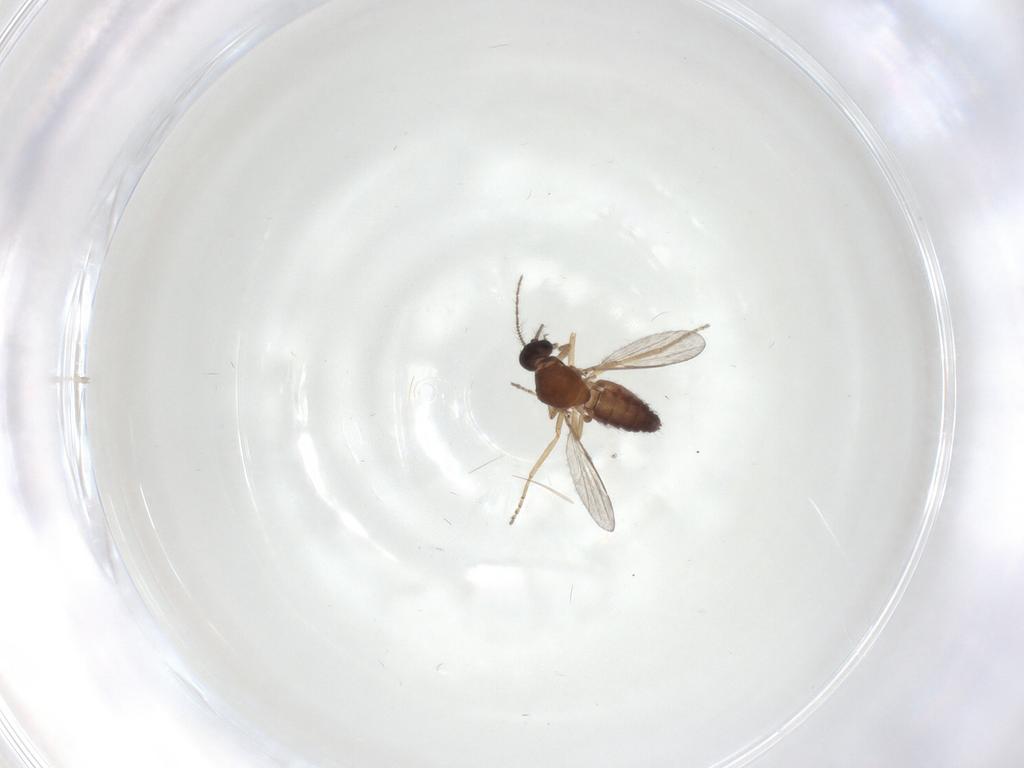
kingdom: Animalia
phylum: Arthropoda
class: Insecta
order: Diptera
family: Ceratopogonidae
